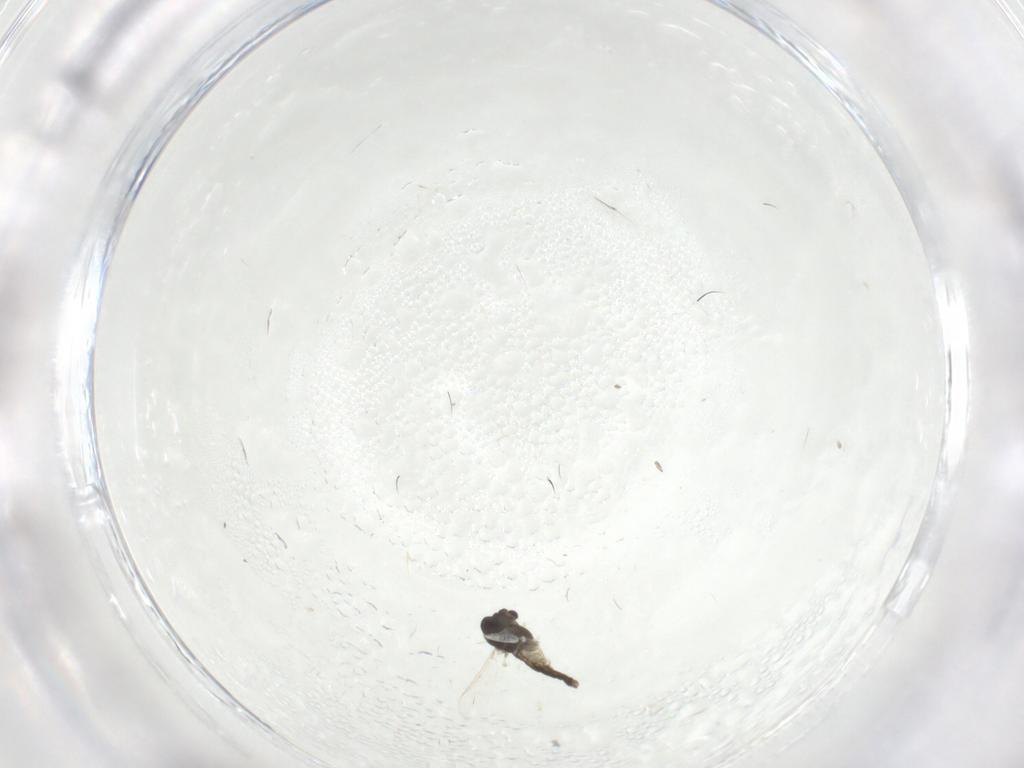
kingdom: Animalia
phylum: Arthropoda
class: Insecta
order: Diptera
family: Chironomidae
